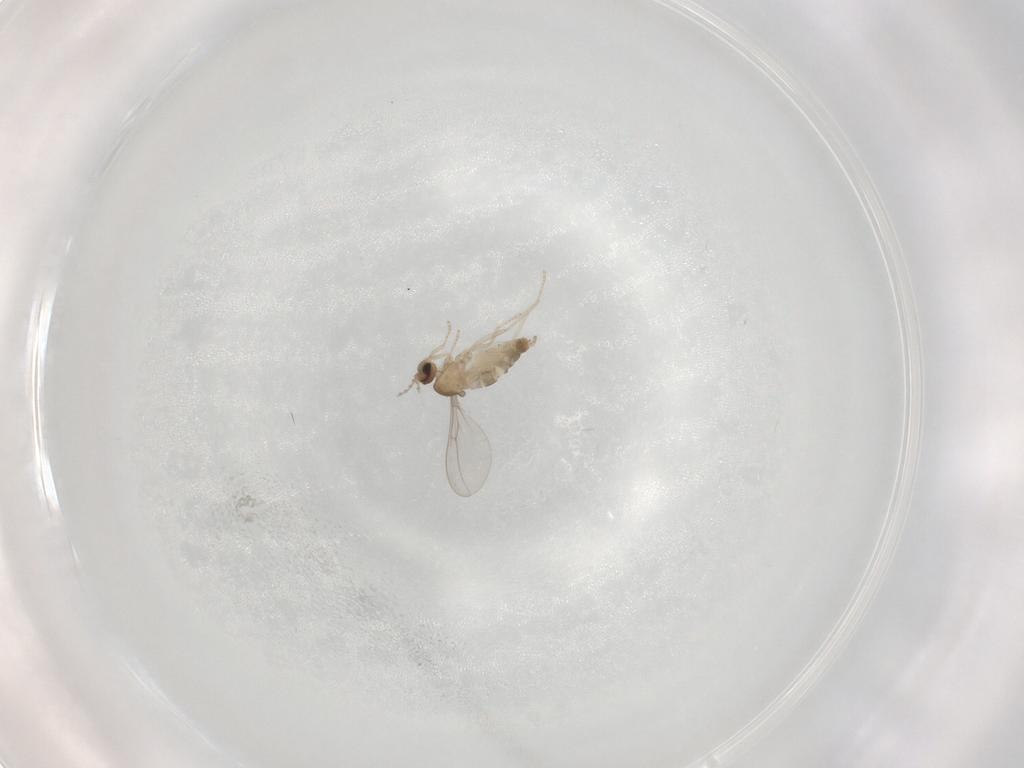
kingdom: Animalia
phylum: Arthropoda
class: Insecta
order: Diptera
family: Cecidomyiidae
